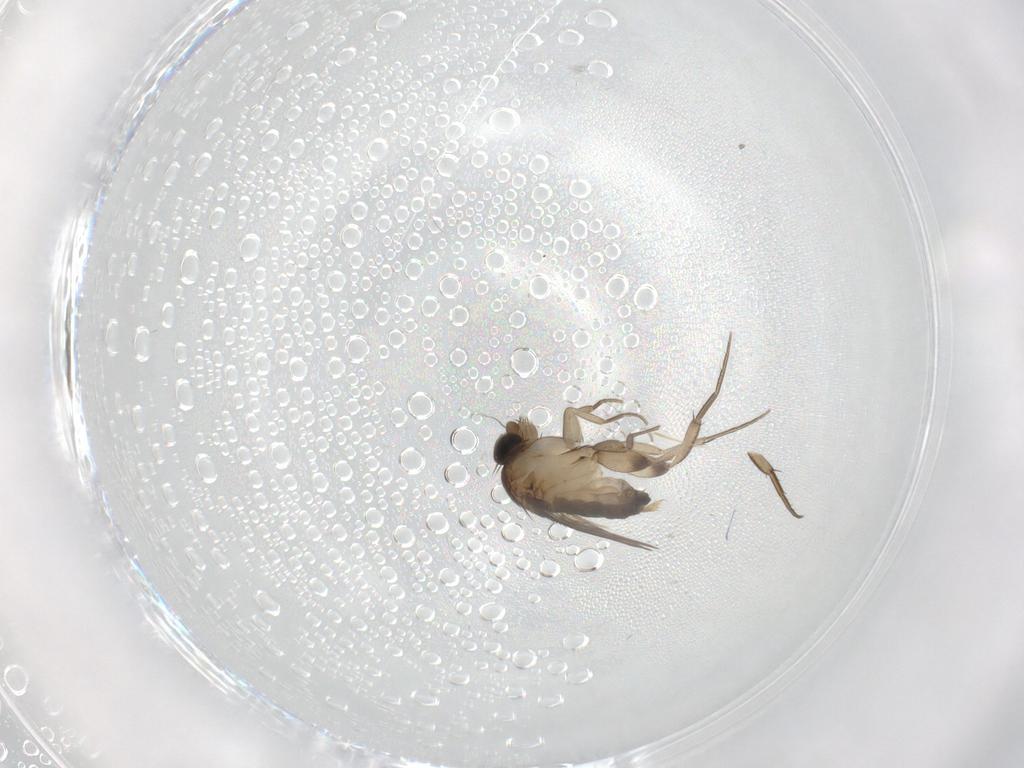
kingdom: Animalia
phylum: Arthropoda
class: Insecta
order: Diptera
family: Phoridae
